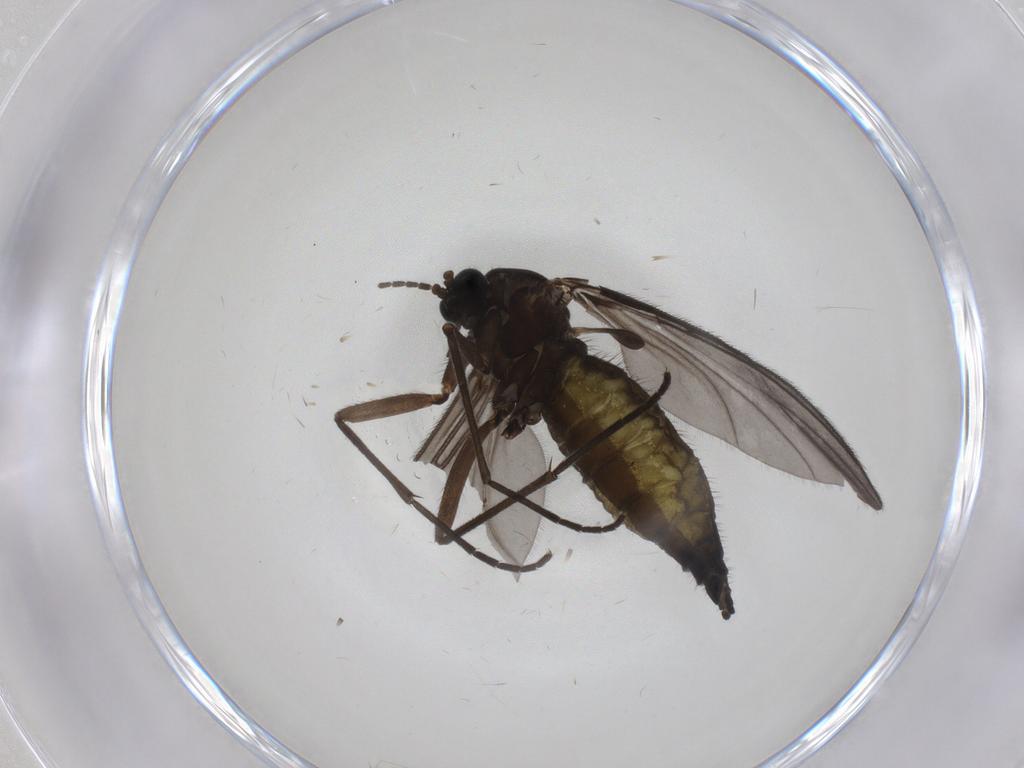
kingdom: Animalia
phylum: Arthropoda
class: Insecta
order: Diptera
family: Sciaridae
